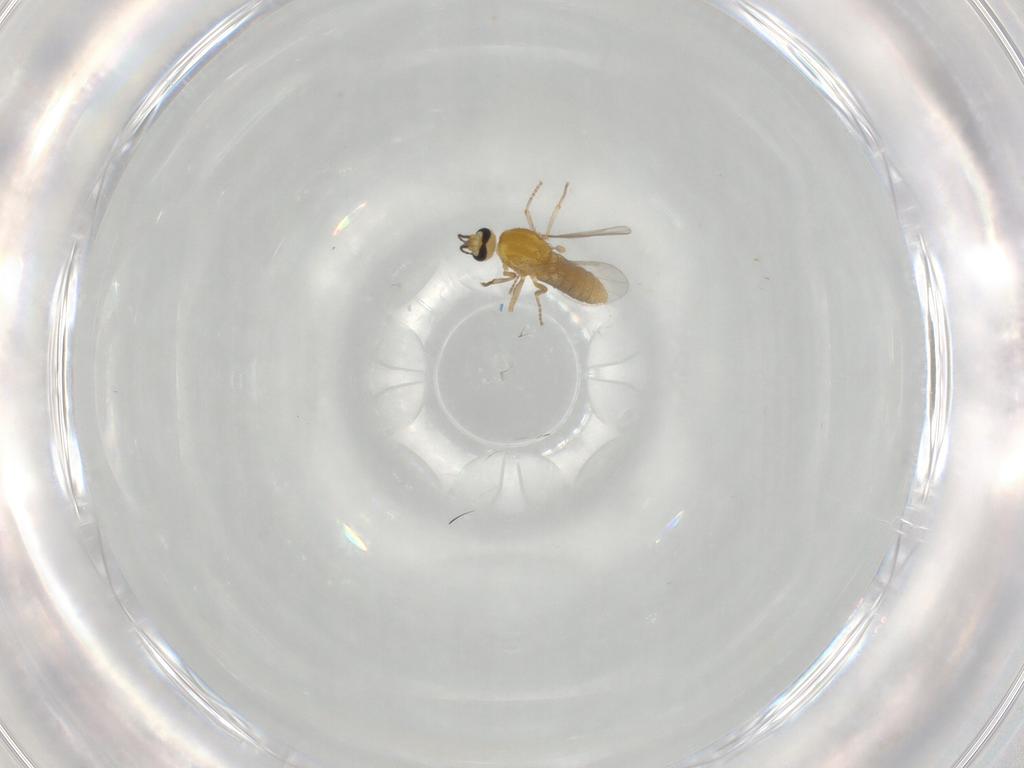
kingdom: Animalia
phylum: Arthropoda
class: Insecta
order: Diptera
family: Ceratopogonidae
